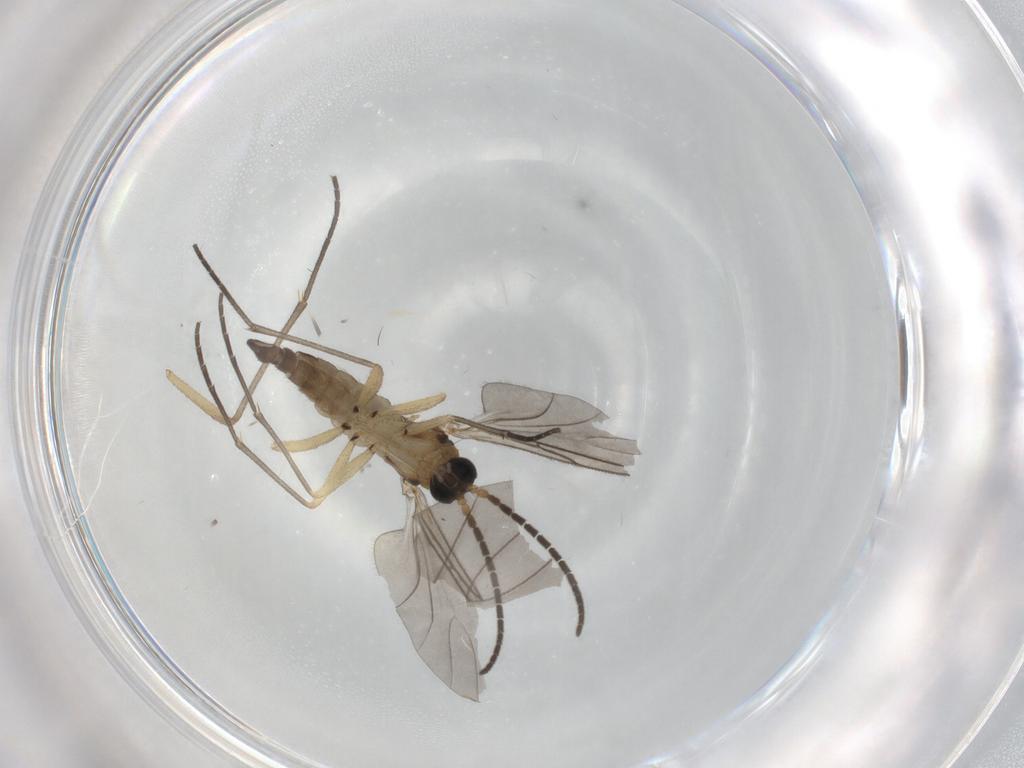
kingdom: Animalia
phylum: Arthropoda
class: Insecta
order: Diptera
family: Sciaridae
